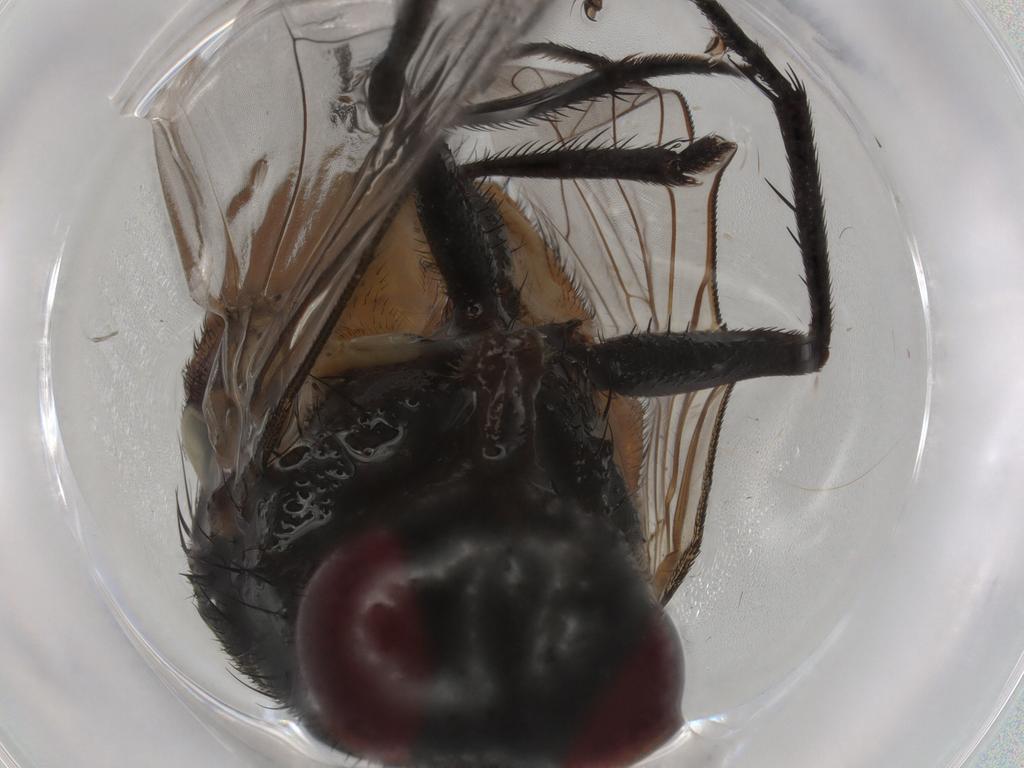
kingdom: Animalia
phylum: Arthropoda
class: Insecta
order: Diptera
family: Muscidae
